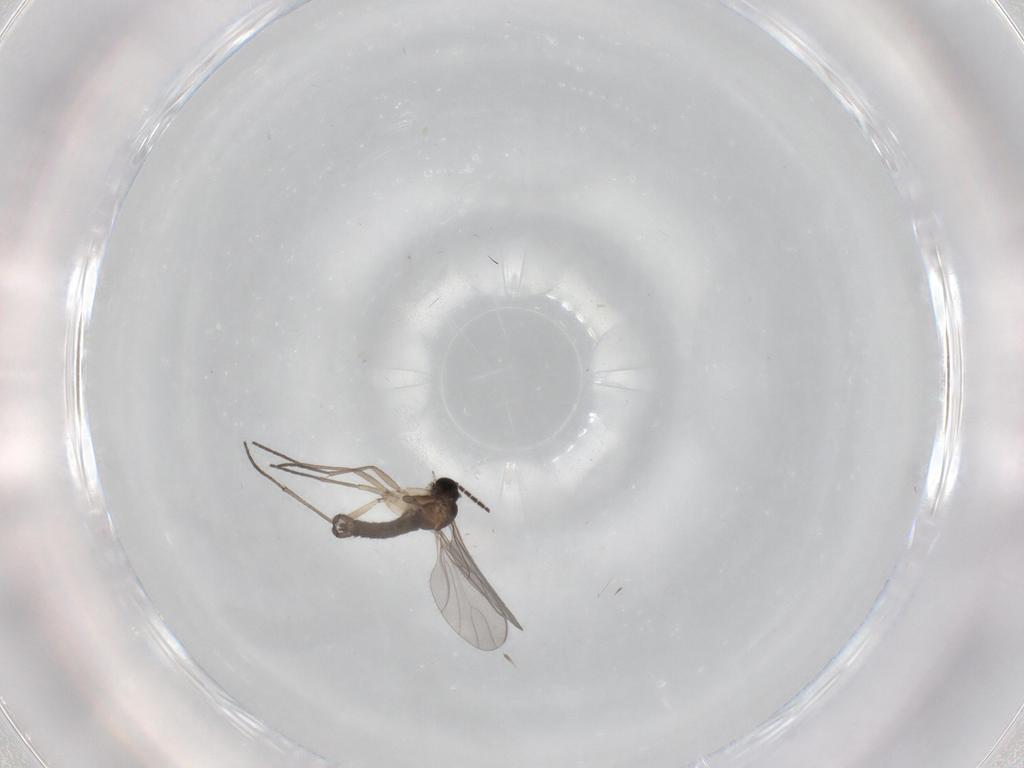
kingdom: Animalia
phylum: Arthropoda
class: Insecta
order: Diptera
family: Sciaridae
